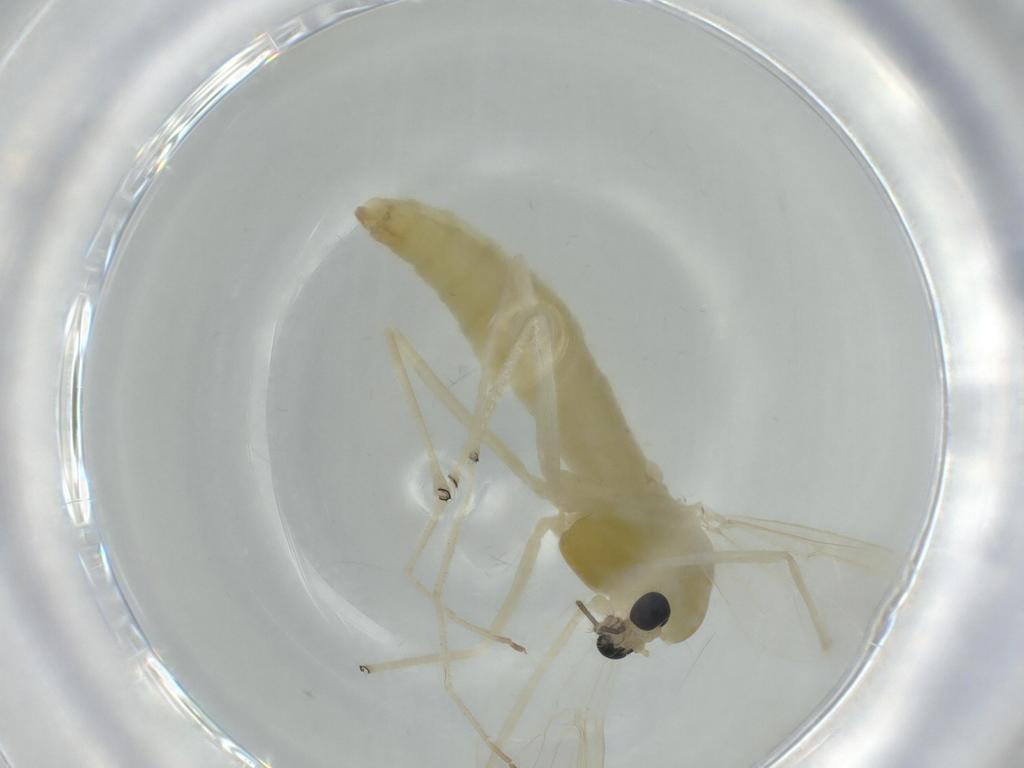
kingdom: Animalia
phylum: Arthropoda
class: Insecta
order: Diptera
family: Chironomidae
